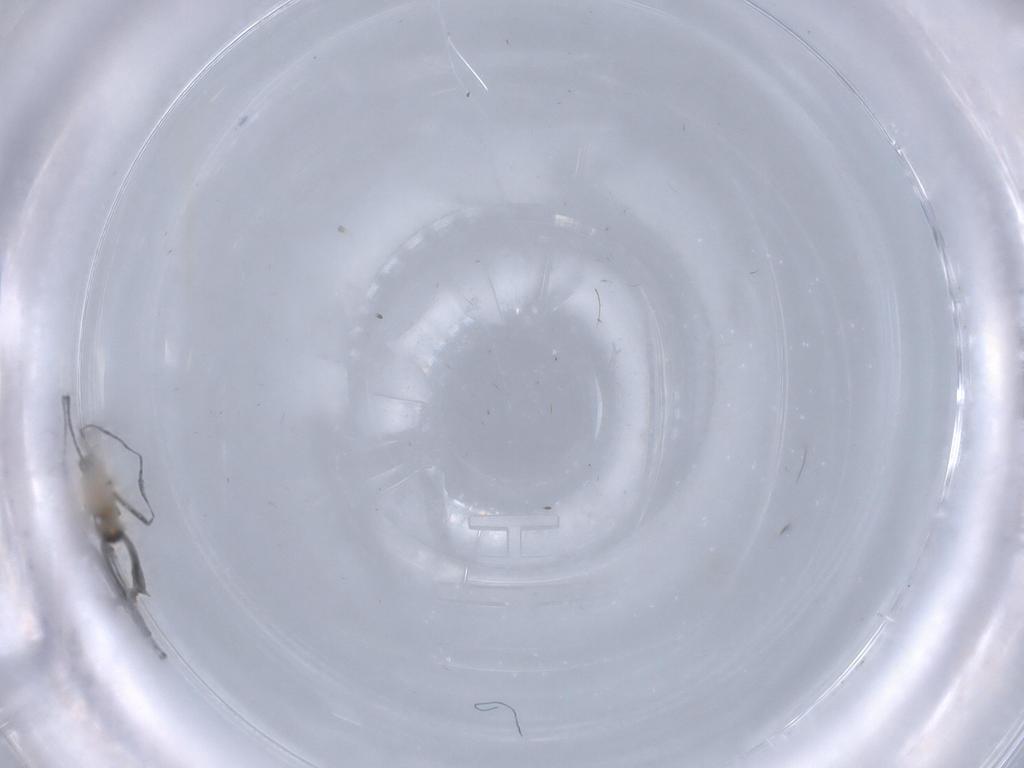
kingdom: Animalia
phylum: Arthropoda
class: Insecta
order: Diptera
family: Cecidomyiidae
